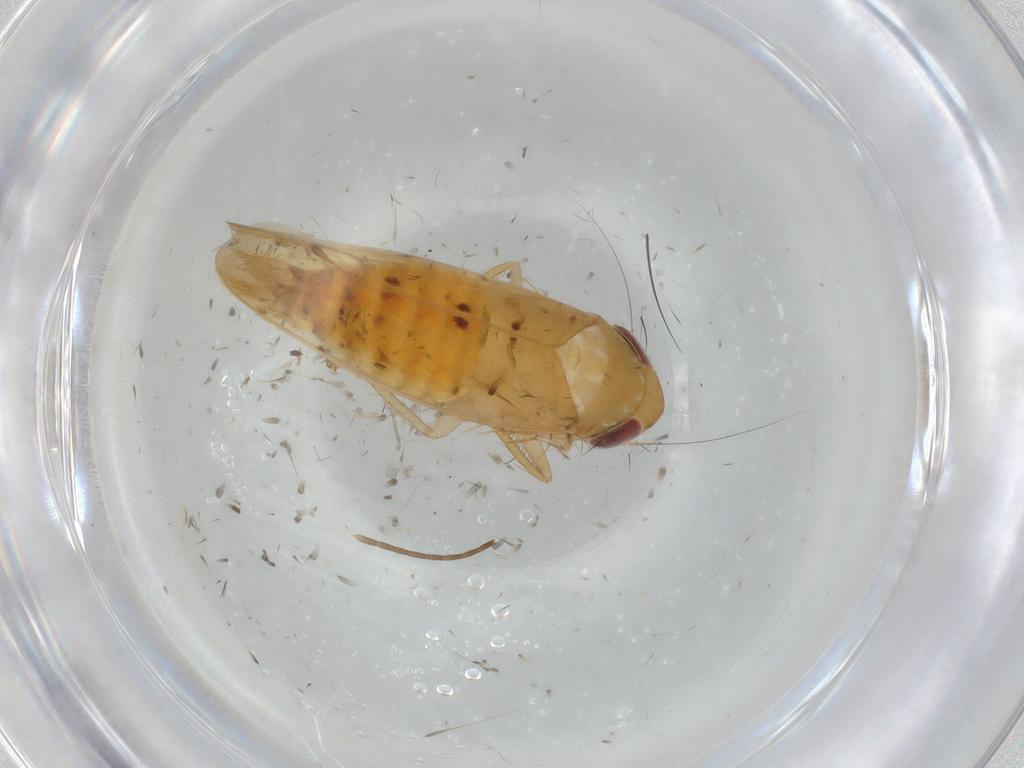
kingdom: Animalia
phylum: Arthropoda
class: Insecta
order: Hemiptera
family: Cicadellidae
